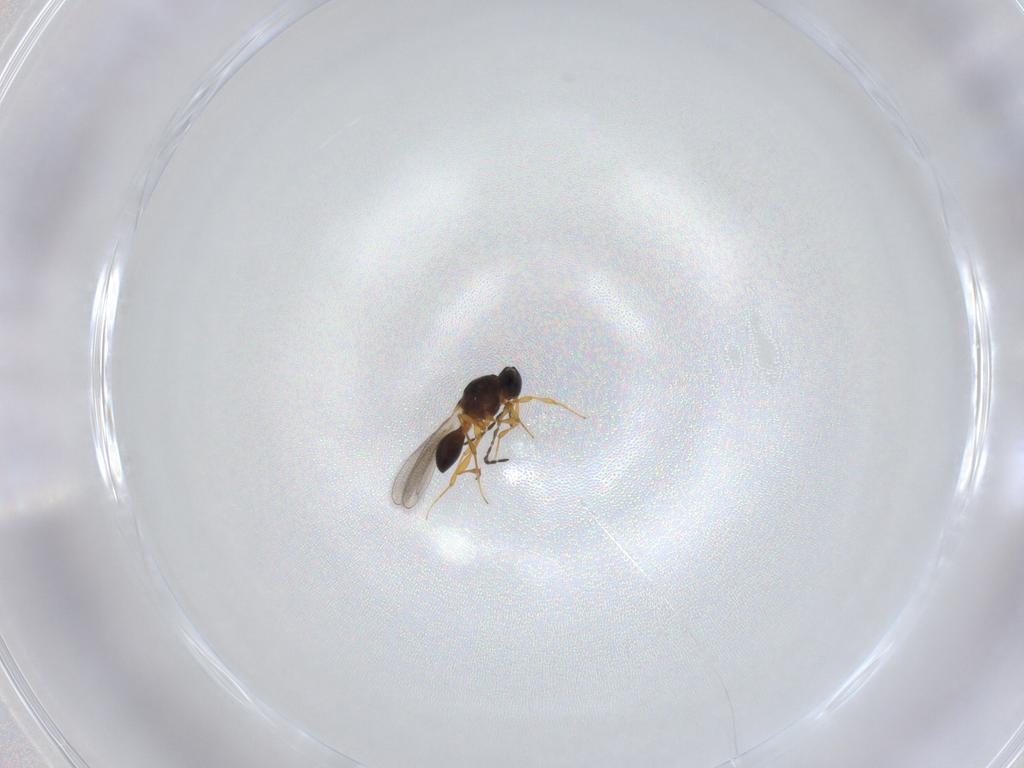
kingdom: Animalia
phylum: Arthropoda
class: Insecta
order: Hymenoptera
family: Platygastridae
